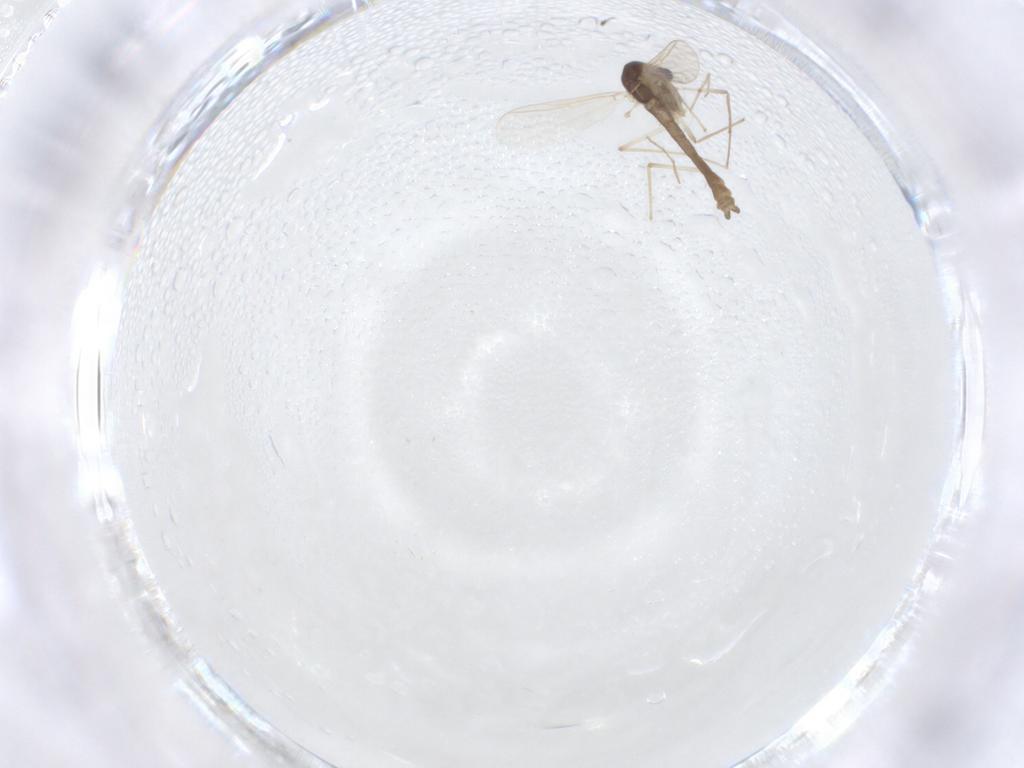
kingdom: Animalia
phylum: Arthropoda
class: Insecta
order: Diptera
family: Chironomidae
